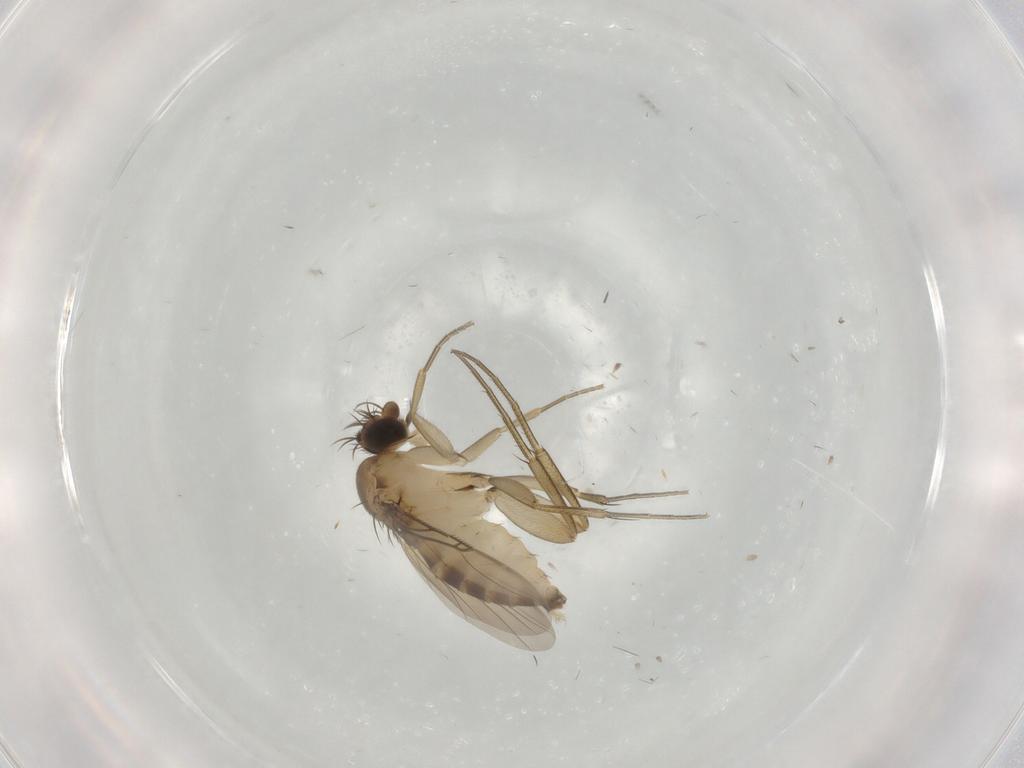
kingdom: Animalia
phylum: Arthropoda
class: Insecta
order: Diptera
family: Phoridae
